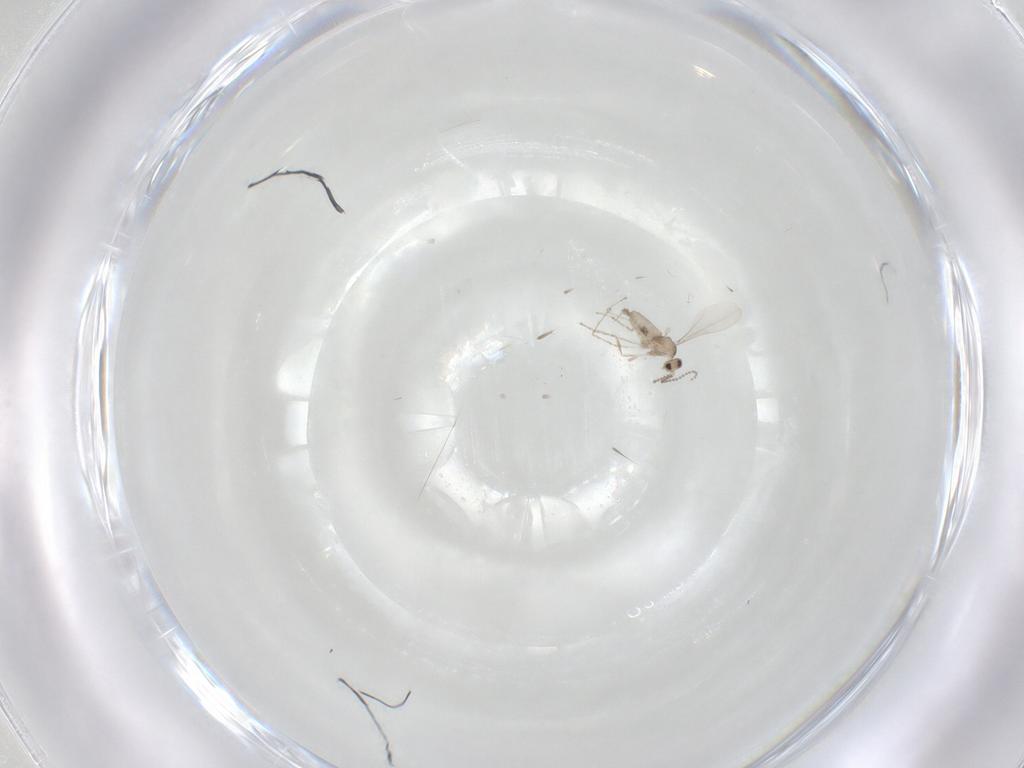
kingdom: Animalia
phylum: Arthropoda
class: Insecta
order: Diptera
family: Cecidomyiidae
